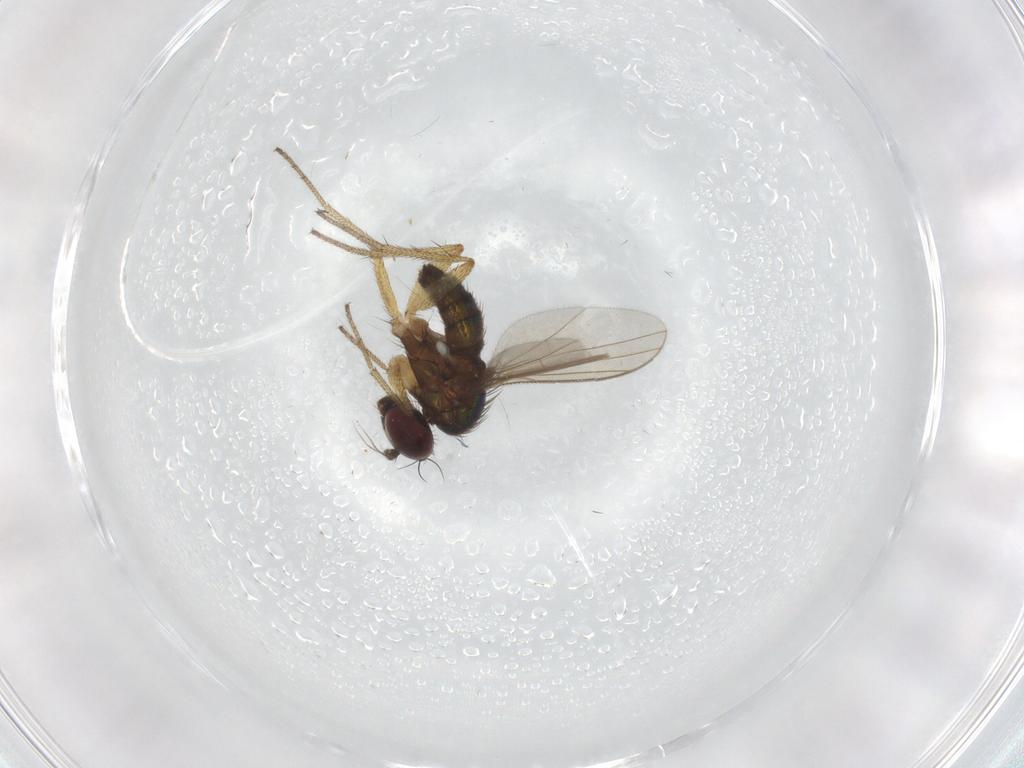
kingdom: Animalia
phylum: Arthropoda
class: Insecta
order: Diptera
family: Dolichopodidae
